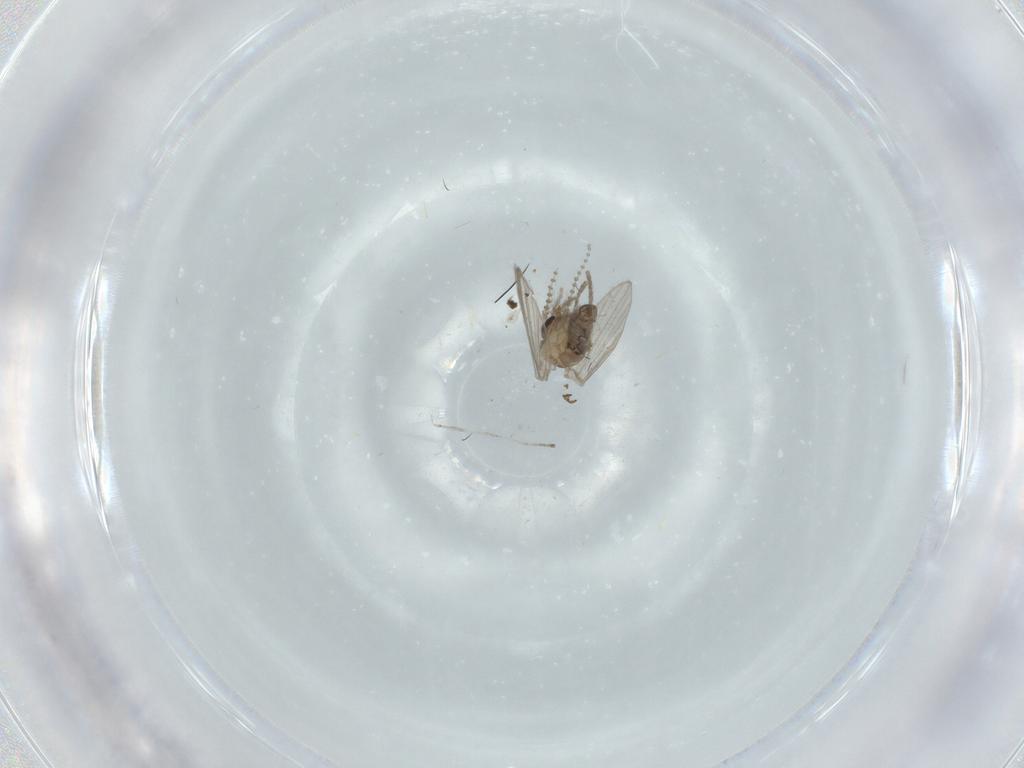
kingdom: Animalia
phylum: Arthropoda
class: Insecta
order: Diptera
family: Psychodidae
